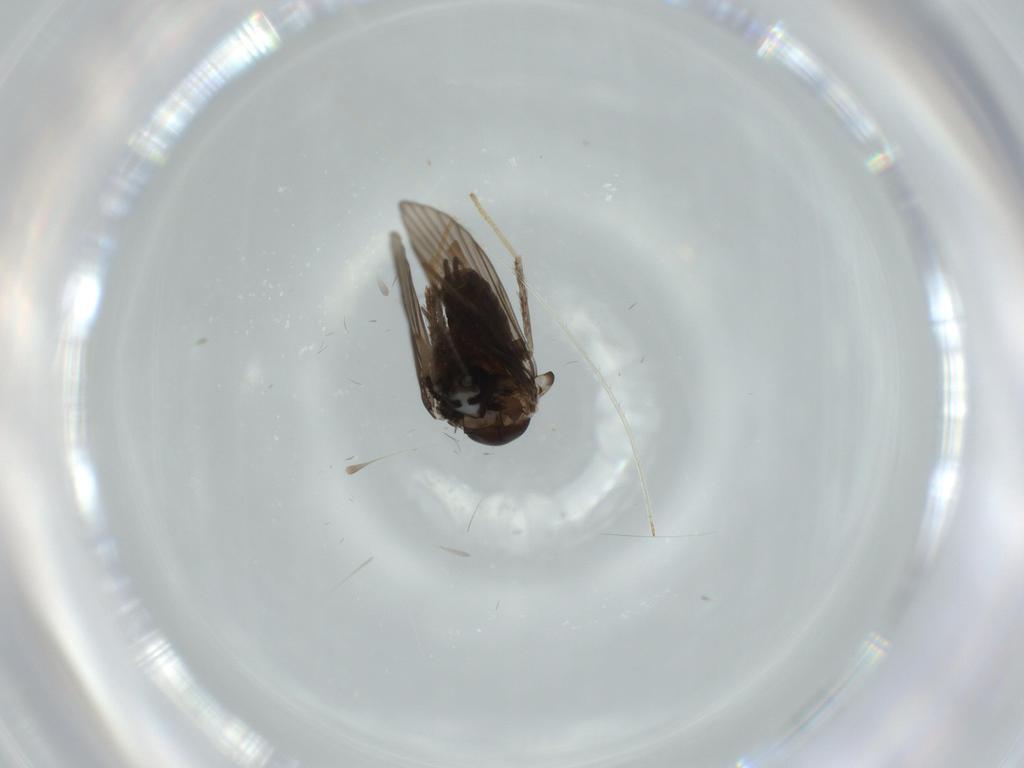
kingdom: Animalia
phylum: Arthropoda
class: Insecta
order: Diptera
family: Psychodidae
